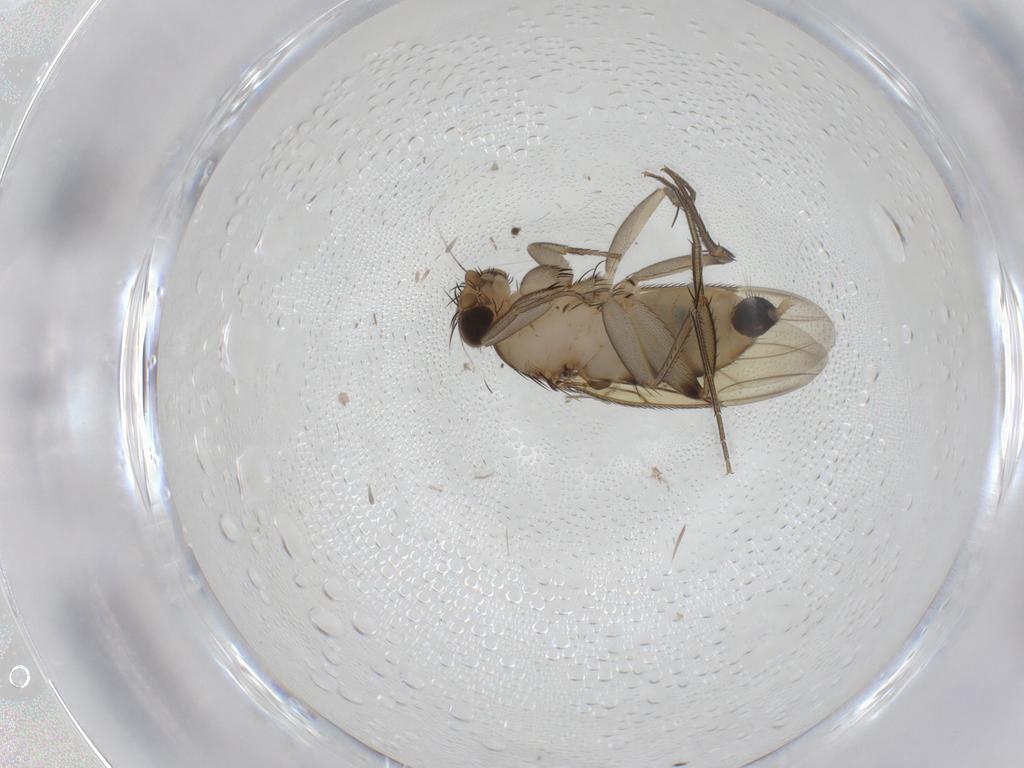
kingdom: Animalia
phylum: Arthropoda
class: Insecta
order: Diptera
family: Phoridae
